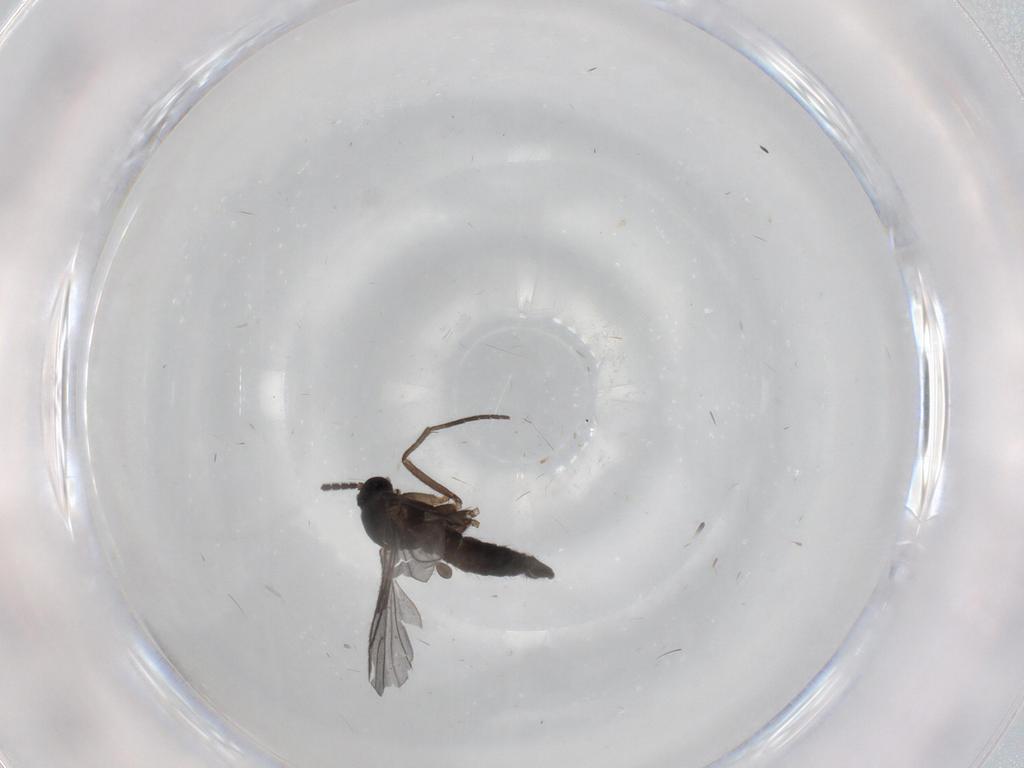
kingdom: Animalia
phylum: Arthropoda
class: Insecta
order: Diptera
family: Sciaridae
